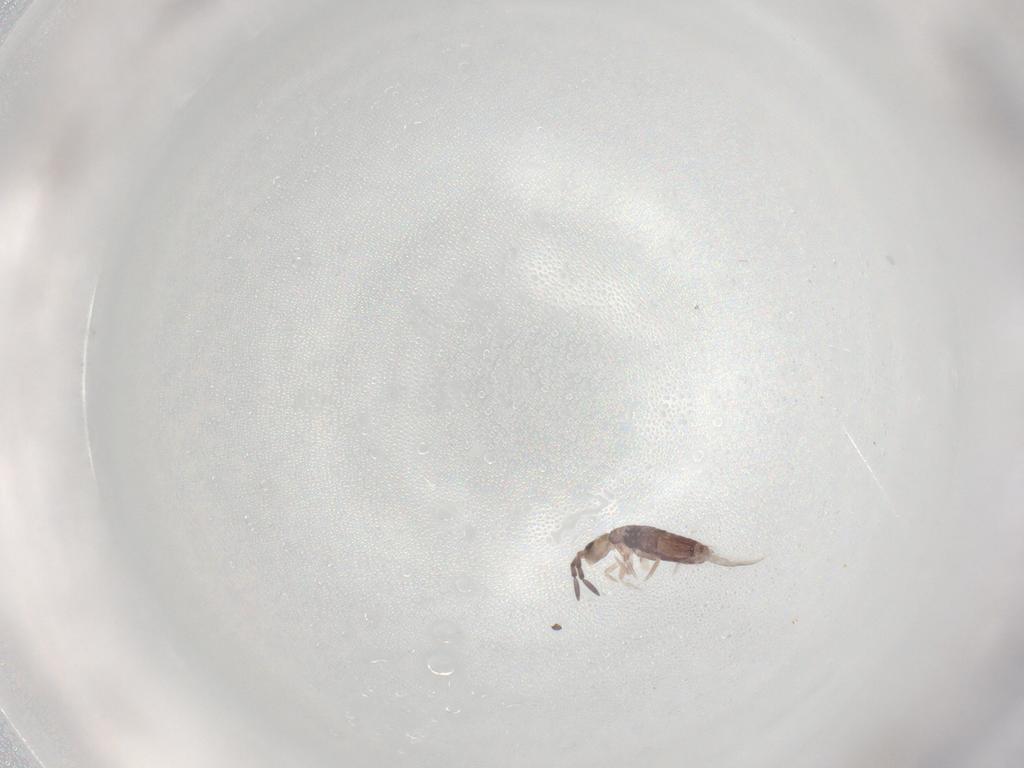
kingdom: Animalia
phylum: Arthropoda
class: Collembola
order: Entomobryomorpha
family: Entomobryidae
